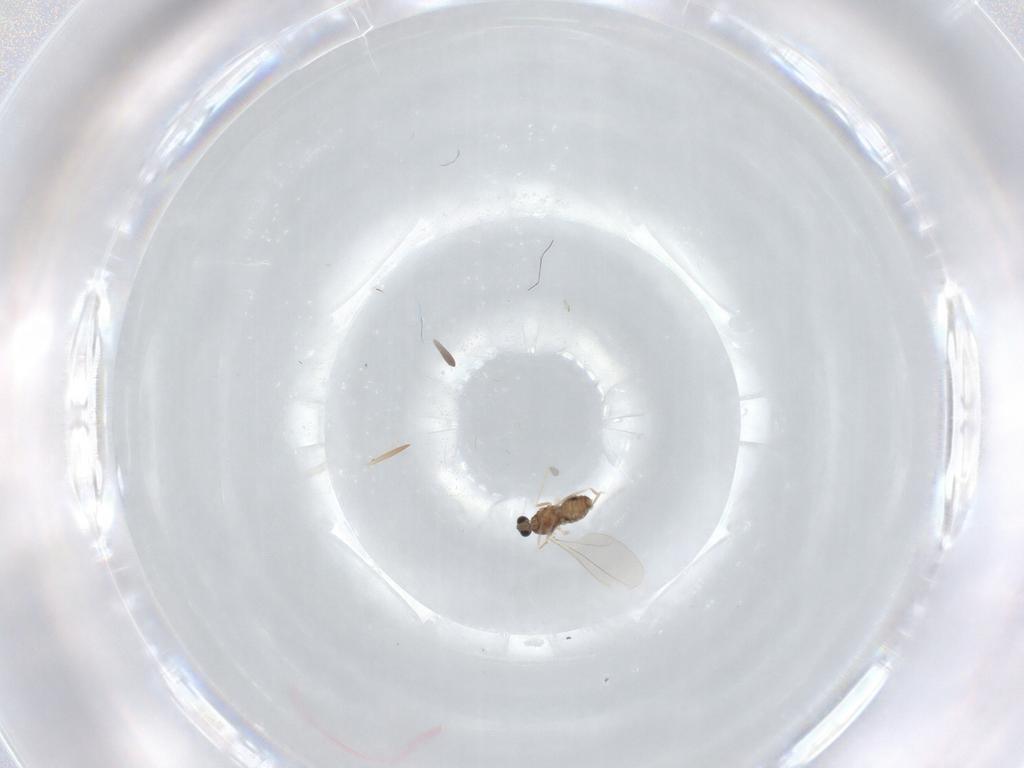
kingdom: Animalia
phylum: Arthropoda
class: Insecta
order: Diptera
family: Cecidomyiidae
